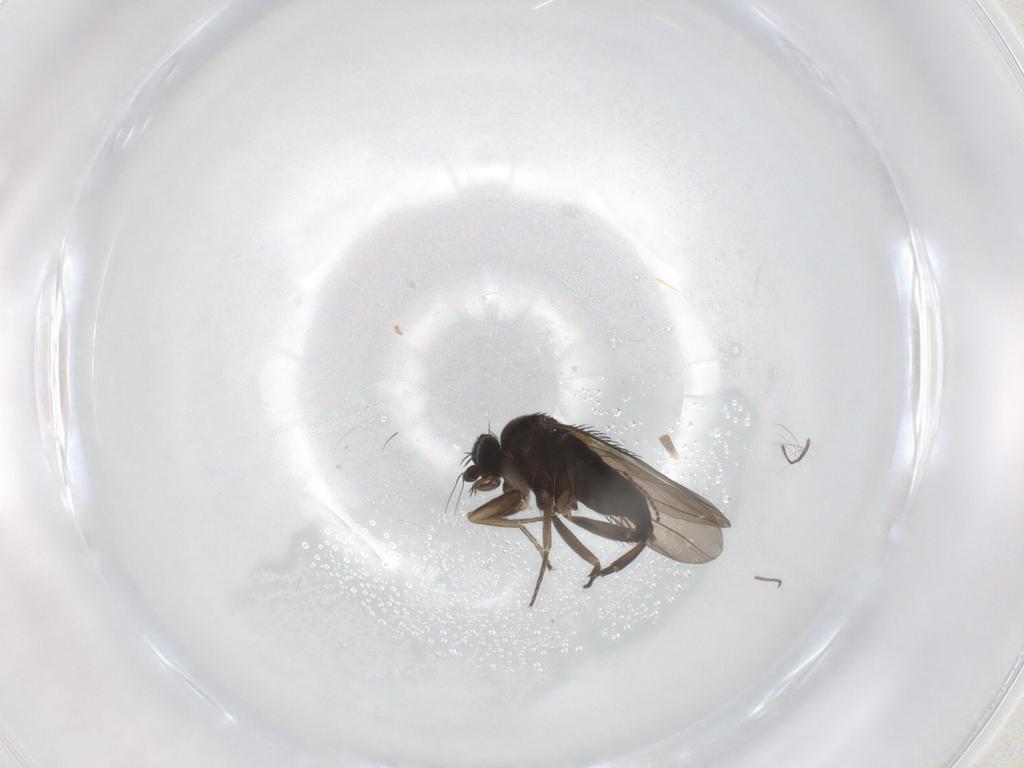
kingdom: Animalia
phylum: Arthropoda
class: Insecta
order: Diptera
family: Phoridae
